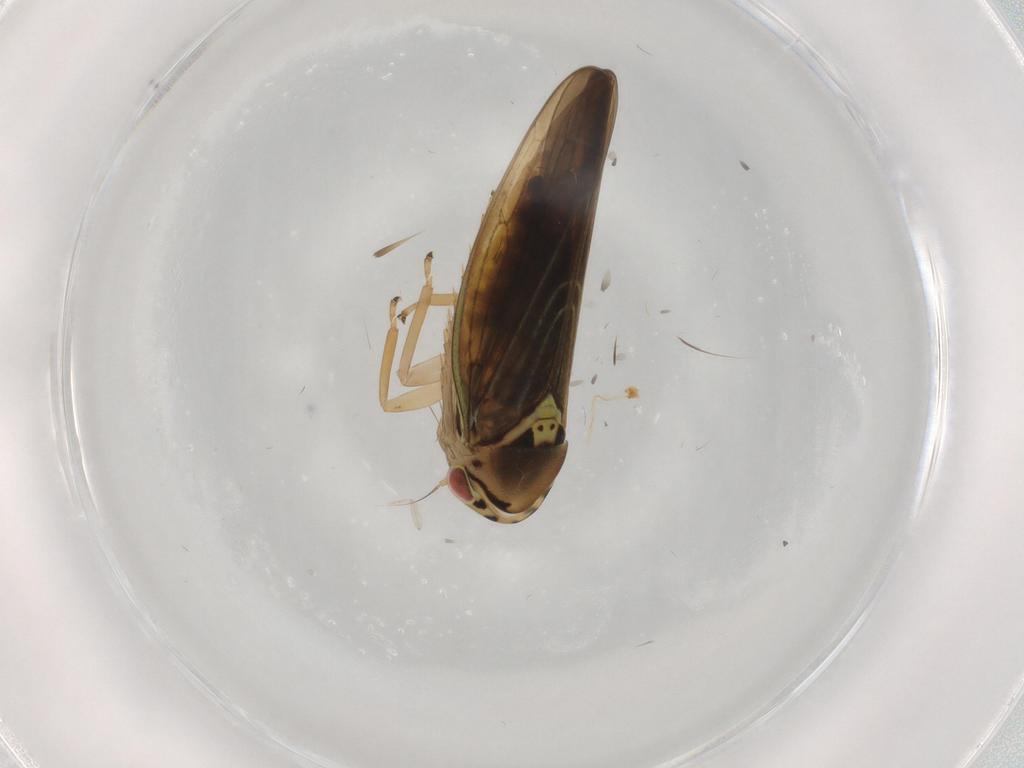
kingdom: Animalia
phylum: Arthropoda
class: Insecta
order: Hemiptera
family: Cicadellidae
